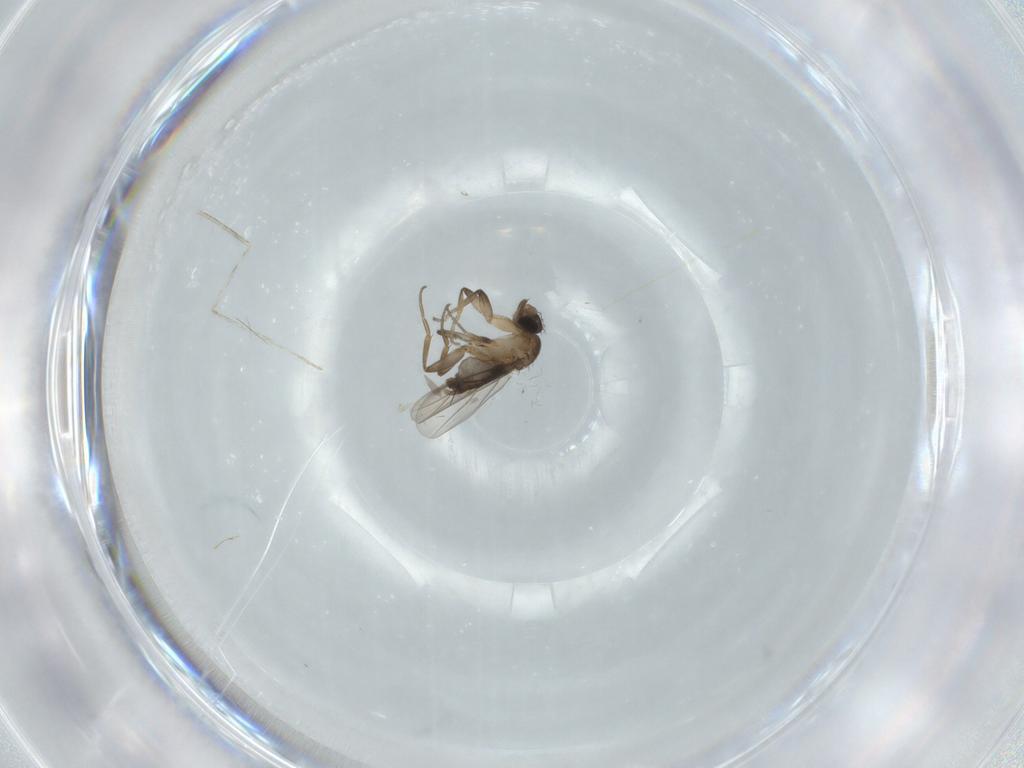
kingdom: Animalia
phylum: Arthropoda
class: Insecta
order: Diptera
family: Phoridae
